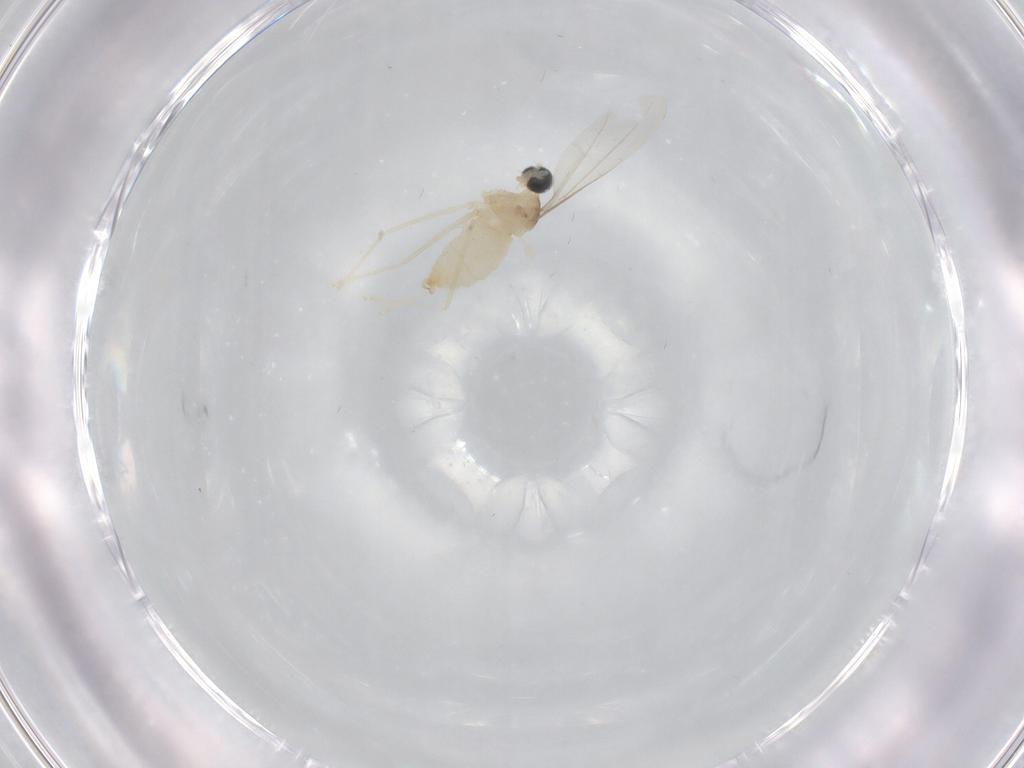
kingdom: Animalia
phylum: Arthropoda
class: Insecta
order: Diptera
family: Cecidomyiidae
